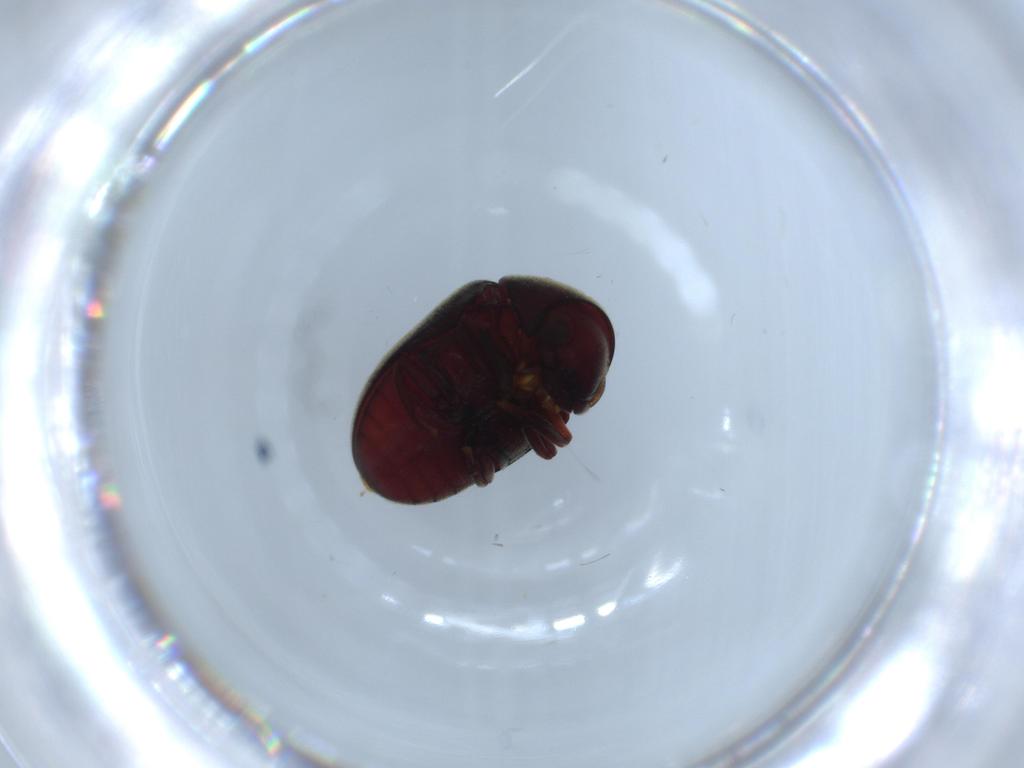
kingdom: Animalia
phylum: Arthropoda
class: Insecta
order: Coleoptera
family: Ptinidae
